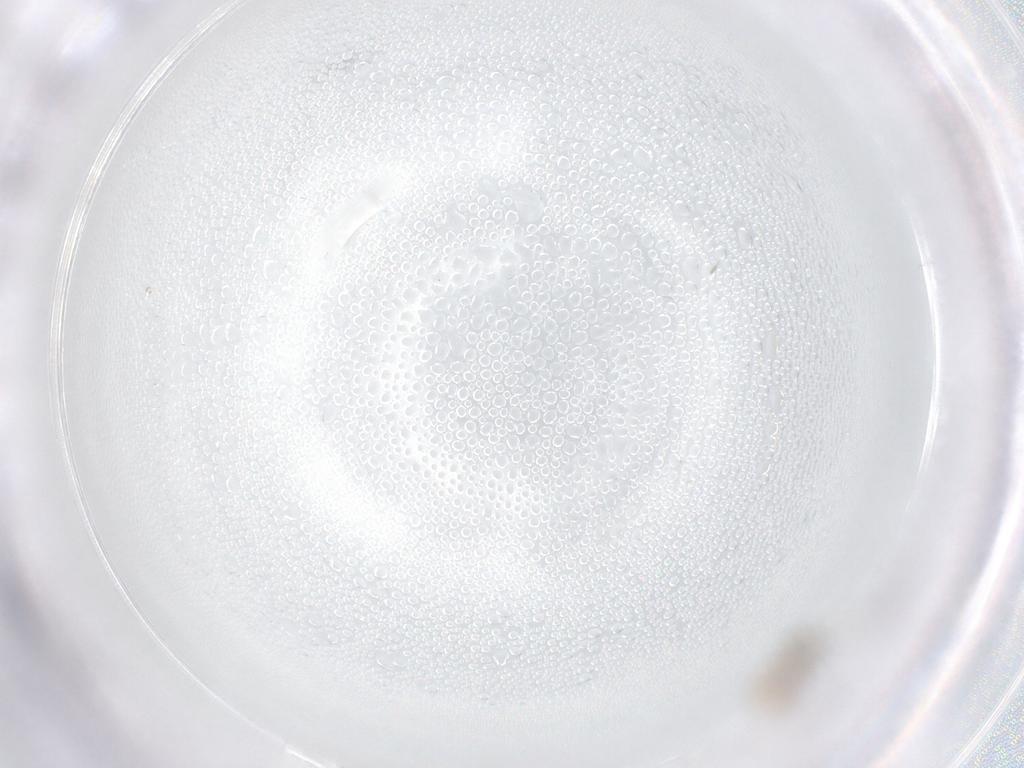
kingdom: Animalia
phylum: Arthropoda
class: Insecta
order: Diptera
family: Cecidomyiidae
